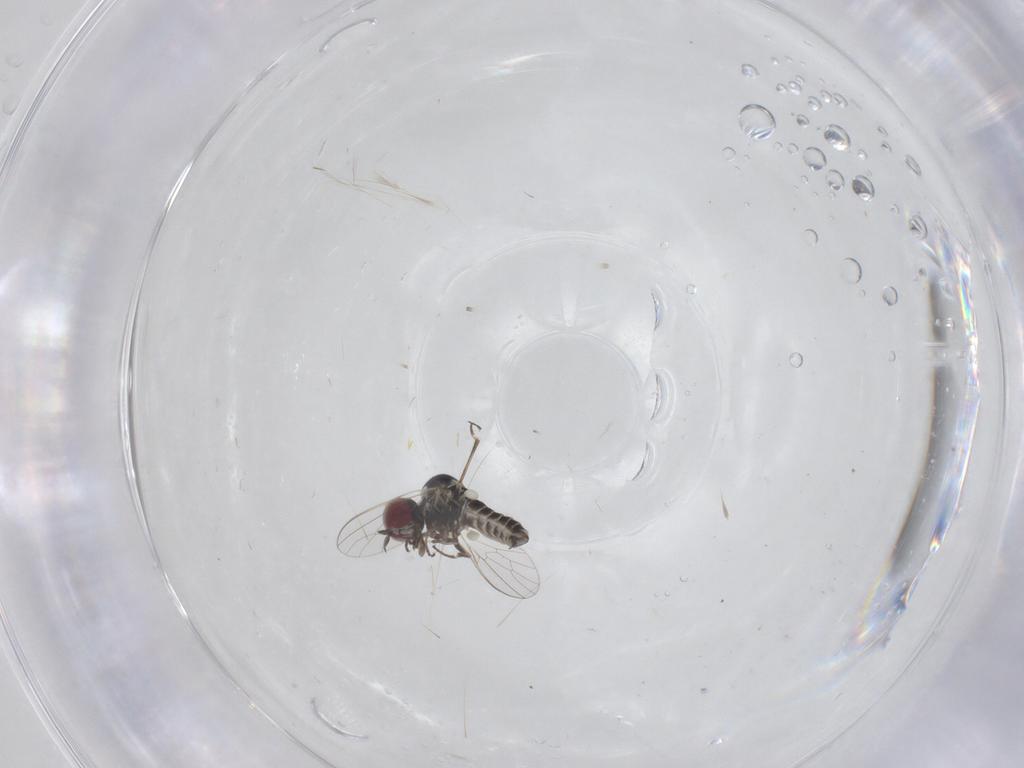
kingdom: Animalia
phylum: Arthropoda
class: Insecta
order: Diptera
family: Mythicomyiidae
